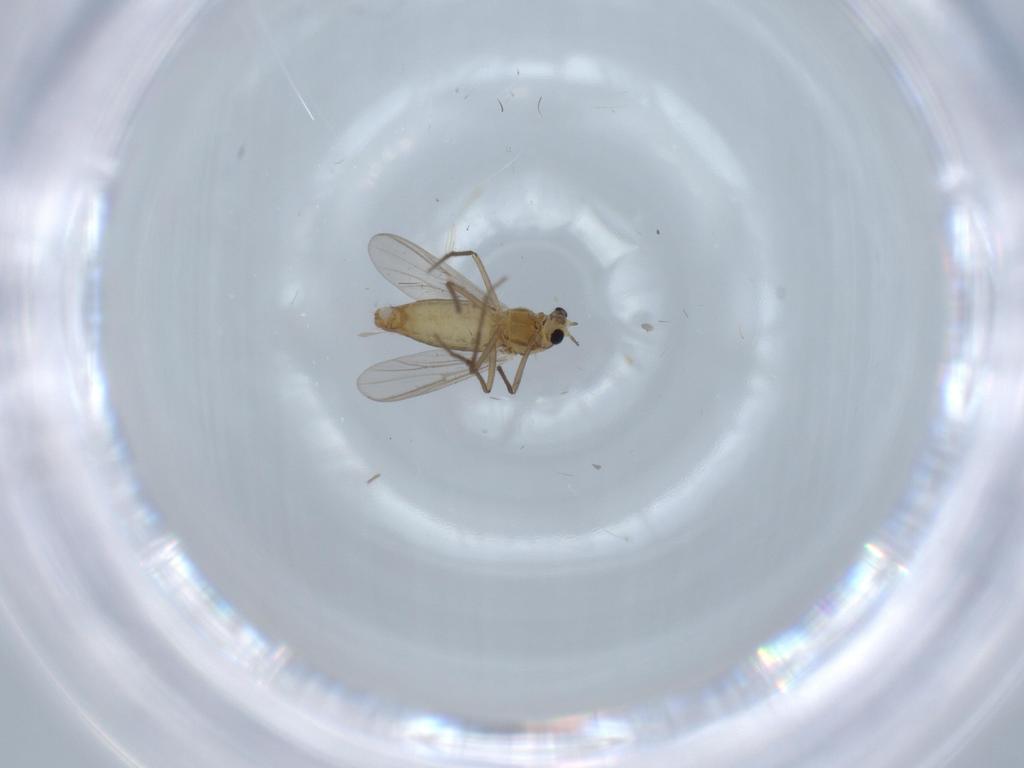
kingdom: Animalia
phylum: Arthropoda
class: Insecta
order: Diptera
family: Chironomidae
